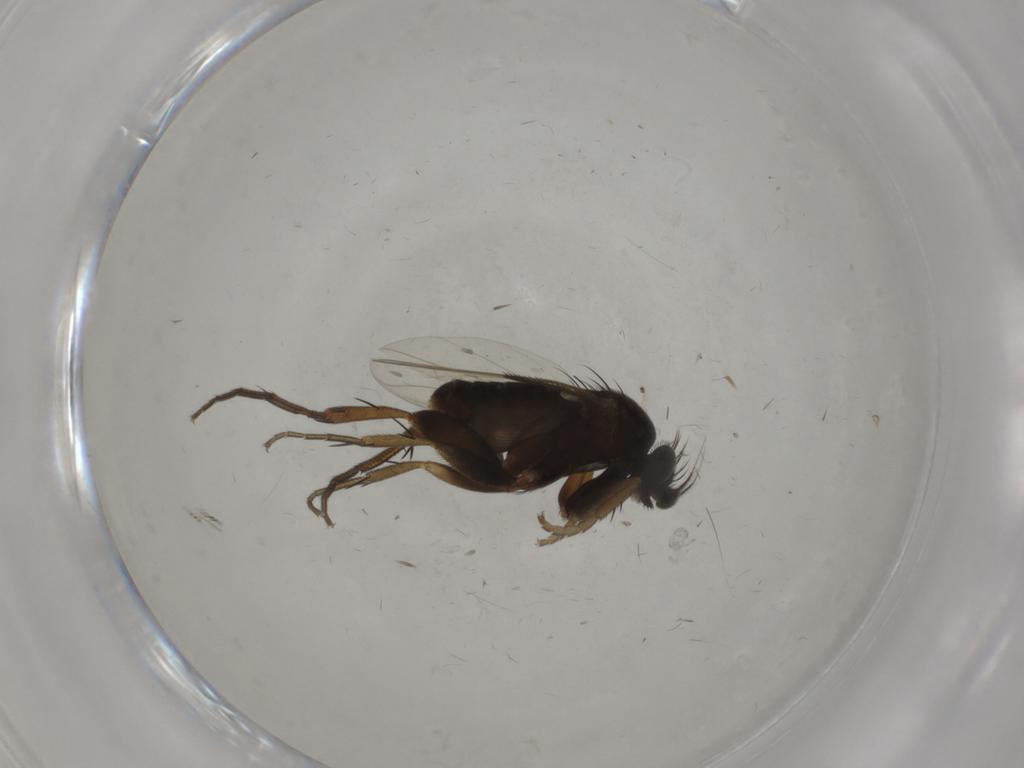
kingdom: Animalia
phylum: Arthropoda
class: Insecta
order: Diptera
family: Phoridae
